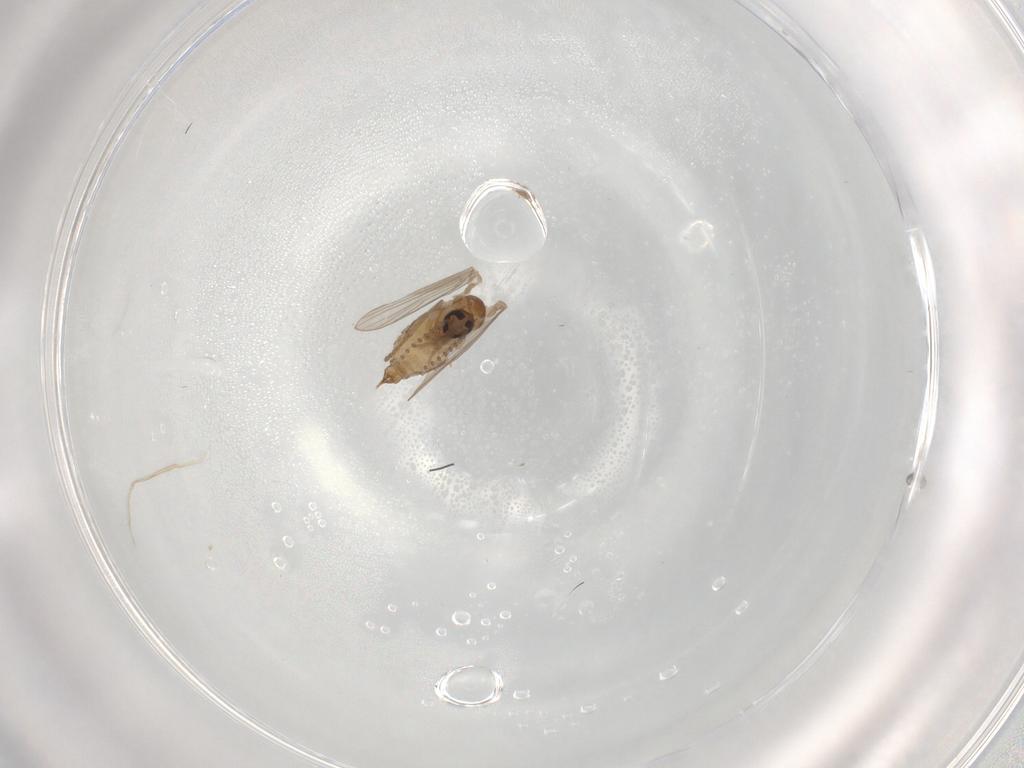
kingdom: Animalia
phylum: Arthropoda
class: Insecta
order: Diptera
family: Psychodidae
